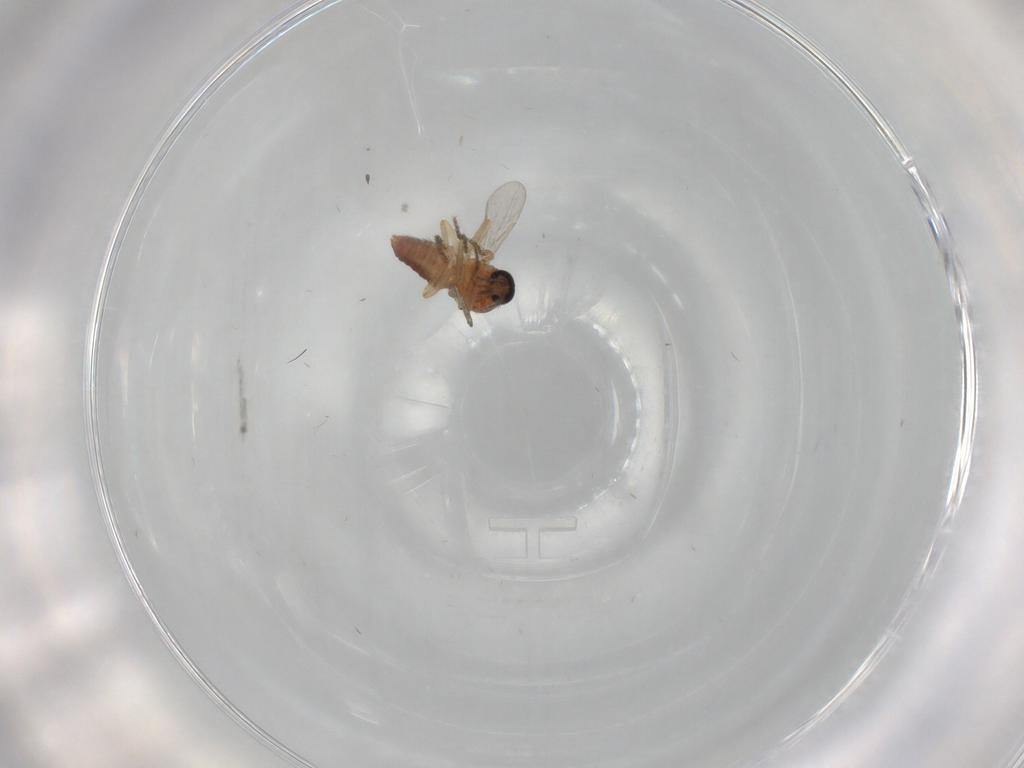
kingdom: Animalia
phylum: Arthropoda
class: Insecta
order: Diptera
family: Ceratopogonidae
